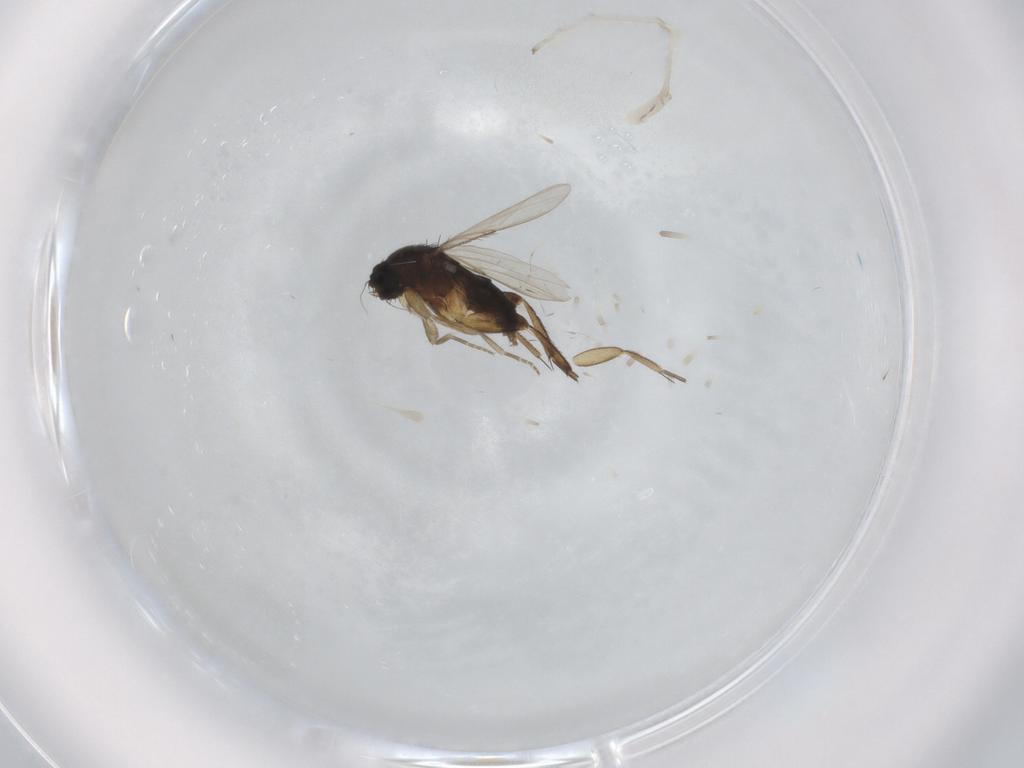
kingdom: Animalia
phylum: Arthropoda
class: Insecta
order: Diptera
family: Phoridae
